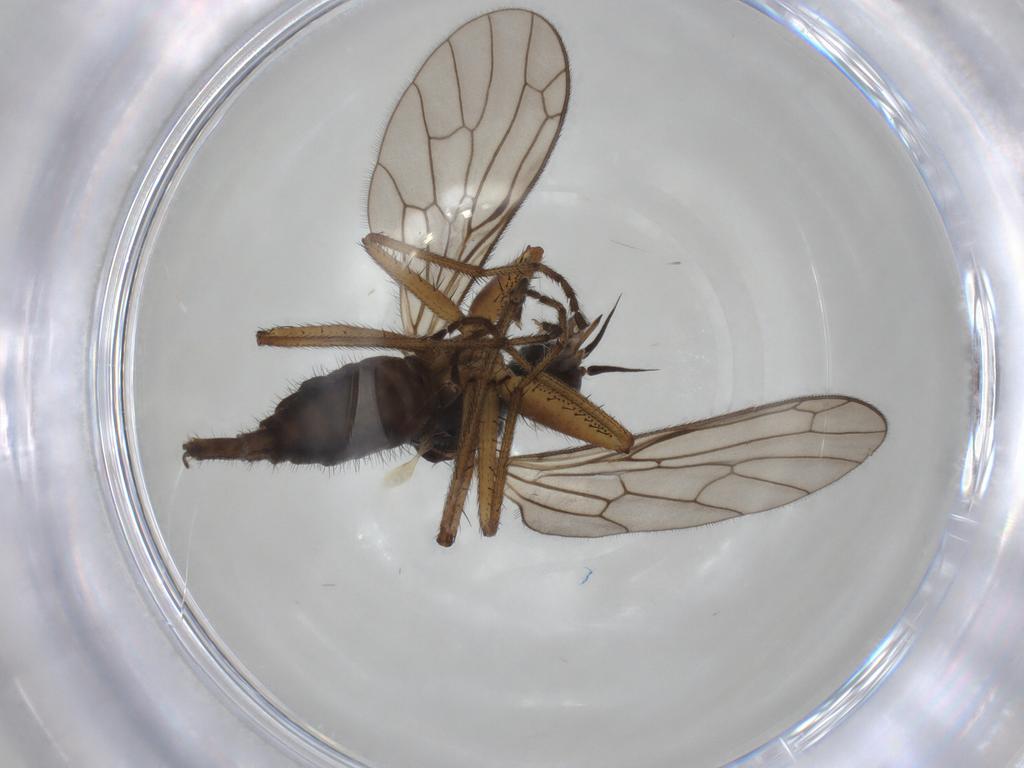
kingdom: Animalia
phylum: Arthropoda
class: Insecta
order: Diptera
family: Empididae
